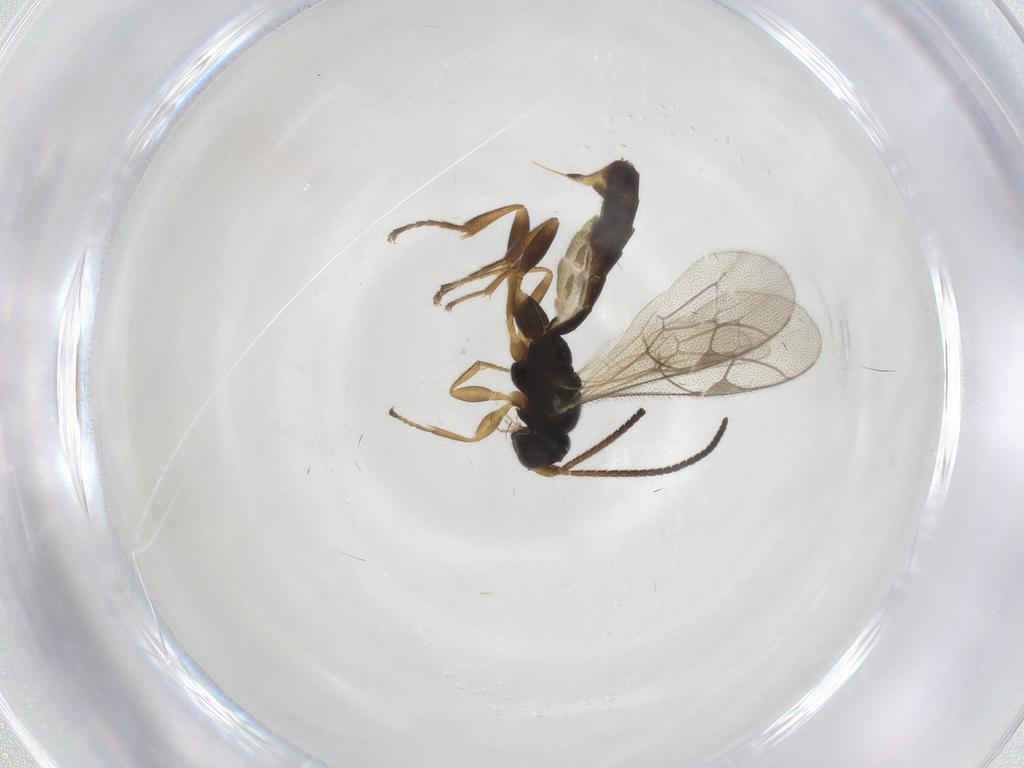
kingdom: Animalia
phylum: Arthropoda
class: Insecta
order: Hymenoptera
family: Ichneumonidae
